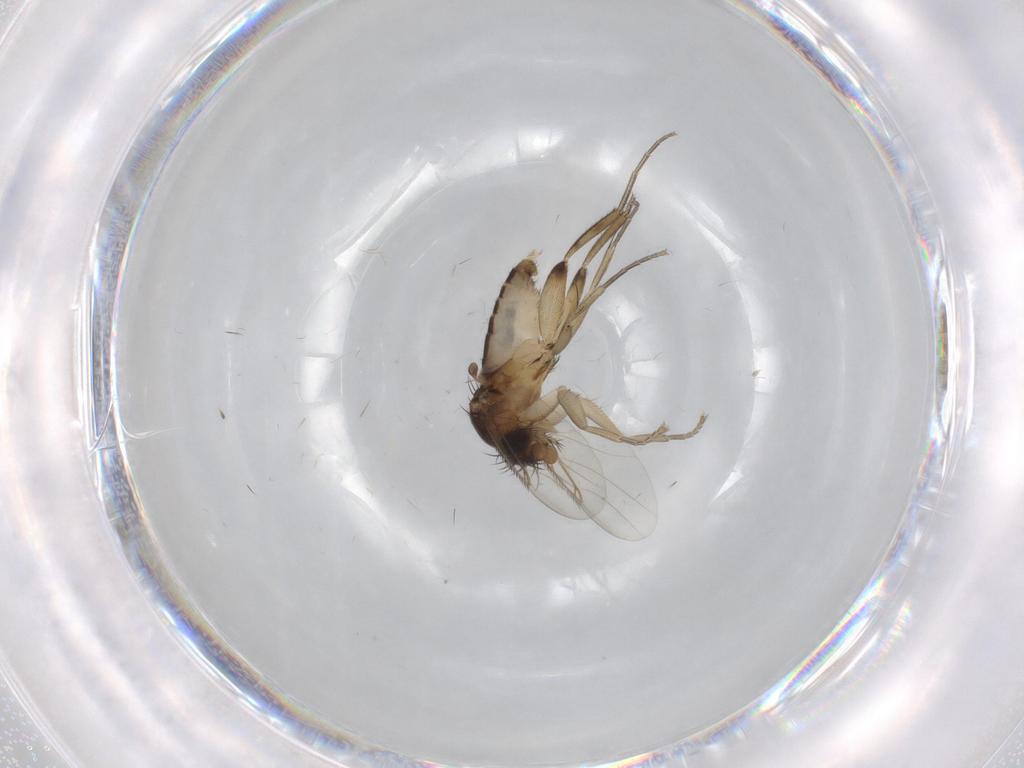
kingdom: Animalia
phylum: Arthropoda
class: Insecta
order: Diptera
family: Phoridae
